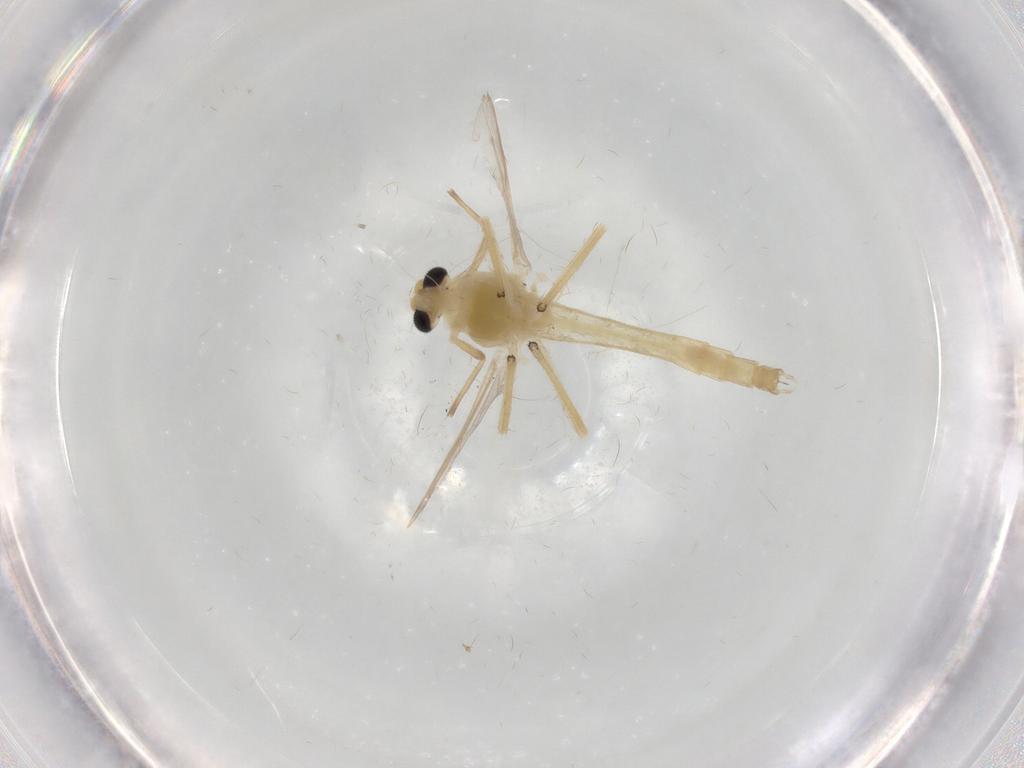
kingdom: Animalia
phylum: Arthropoda
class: Insecta
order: Diptera
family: Chironomidae
